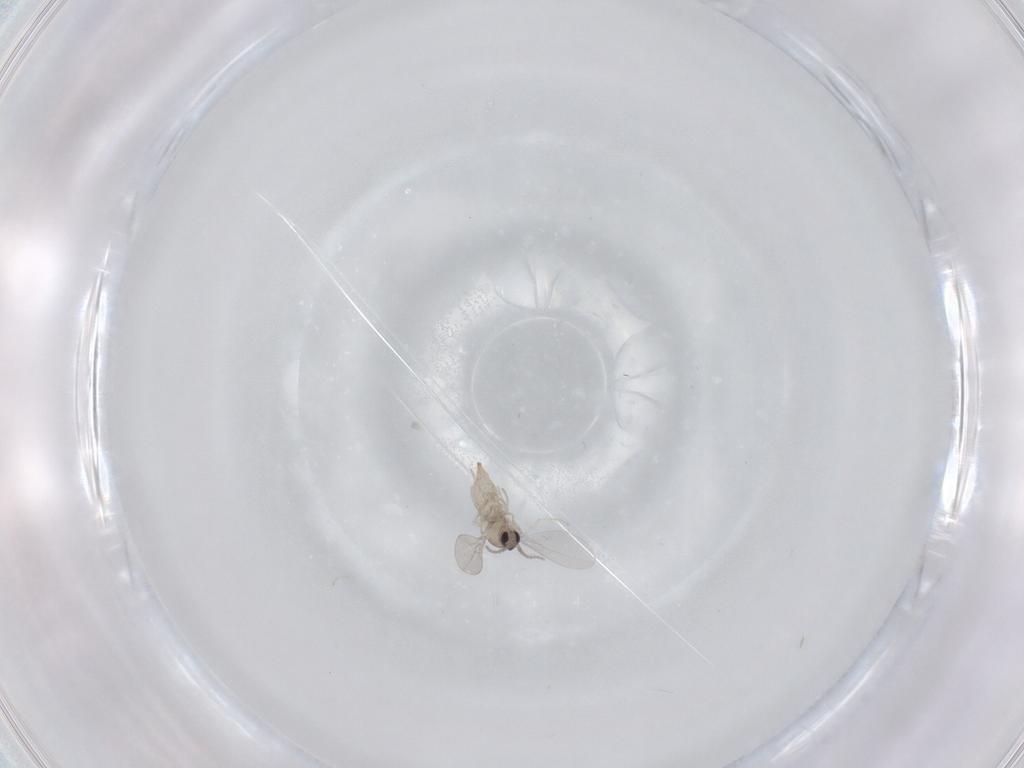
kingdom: Animalia
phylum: Arthropoda
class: Insecta
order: Diptera
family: Cecidomyiidae
